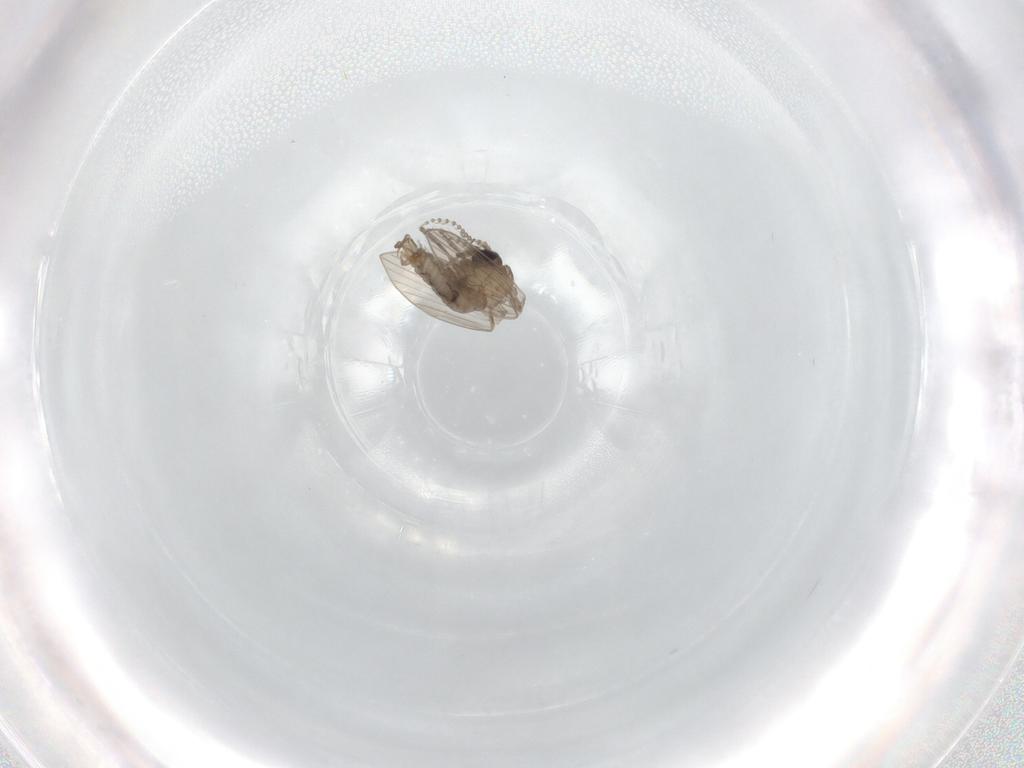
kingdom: Animalia
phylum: Arthropoda
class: Insecta
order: Diptera
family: Psychodidae
